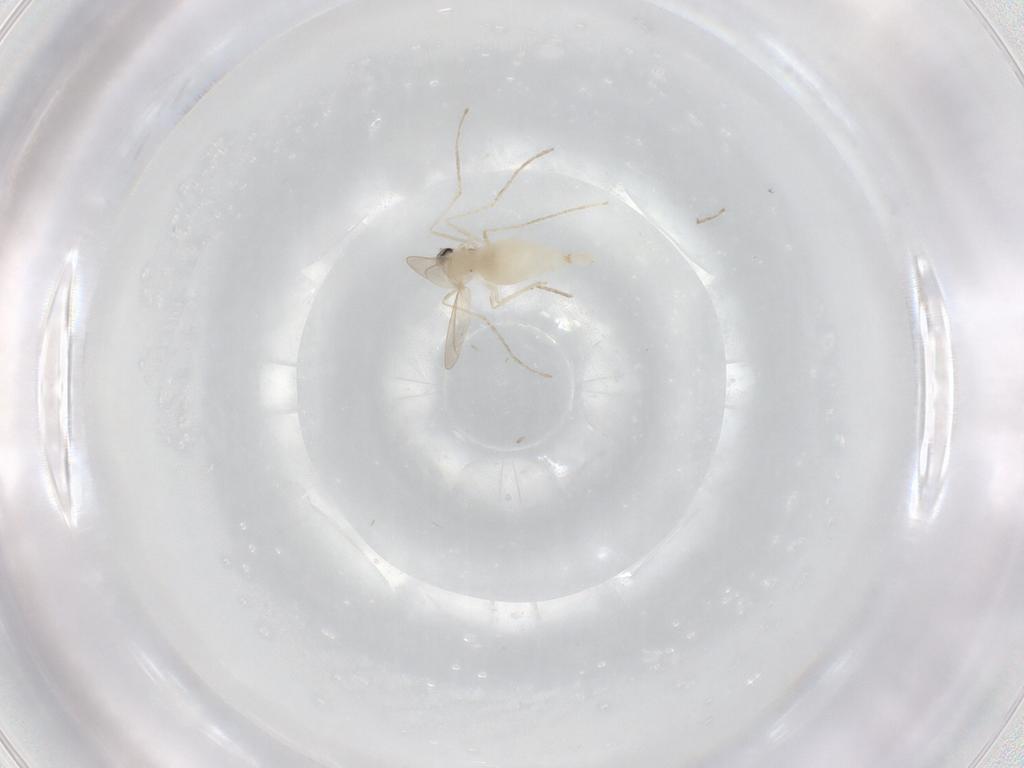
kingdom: Animalia
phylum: Arthropoda
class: Insecta
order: Diptera
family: Cecidomyiidae
